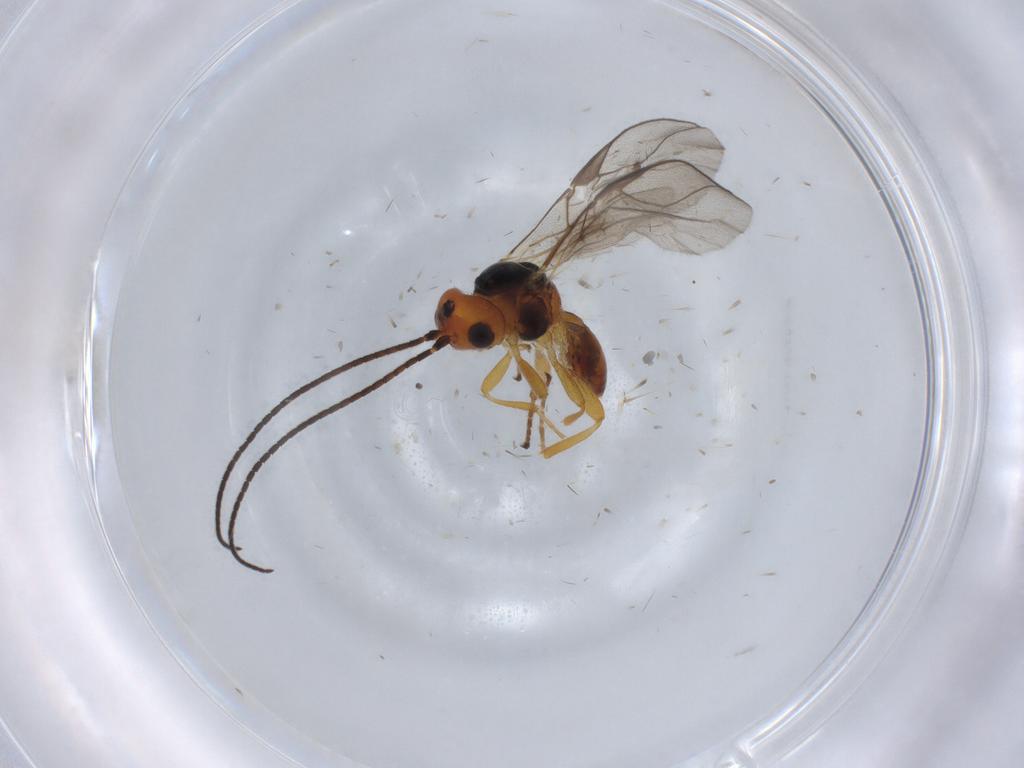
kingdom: Animalia
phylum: Arthropoda
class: Insecta
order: Hymenoptera
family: Braconidae
